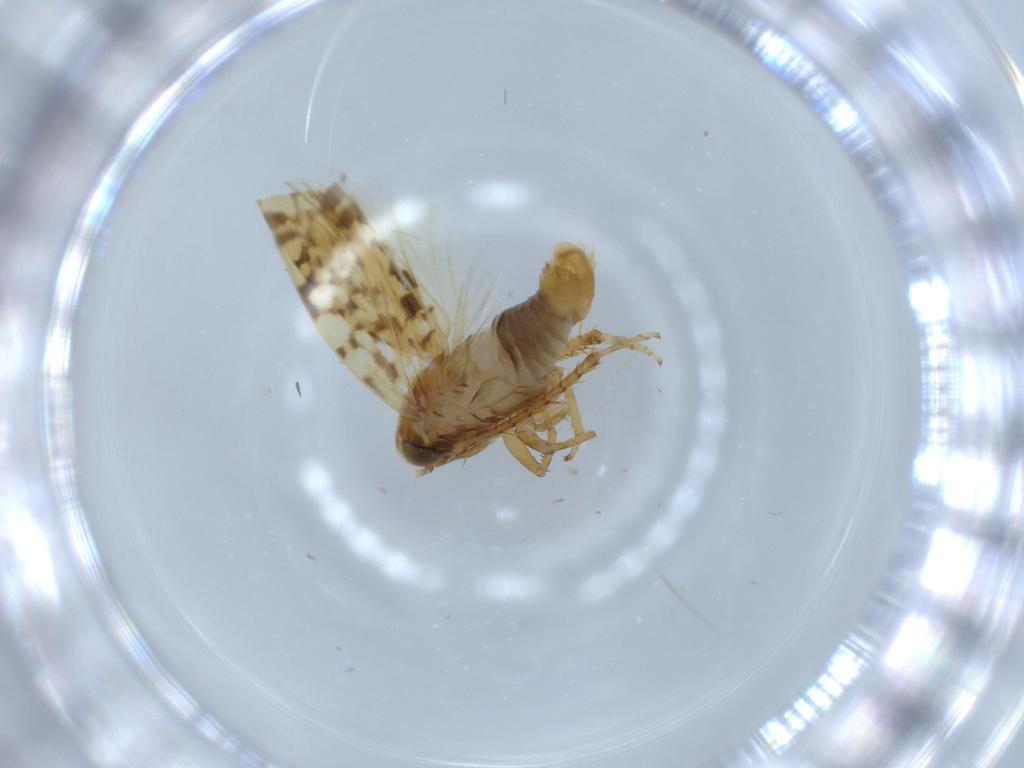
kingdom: Animalia
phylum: Arthropoda
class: Insecta
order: Hemiptera
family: Cicadellidae
